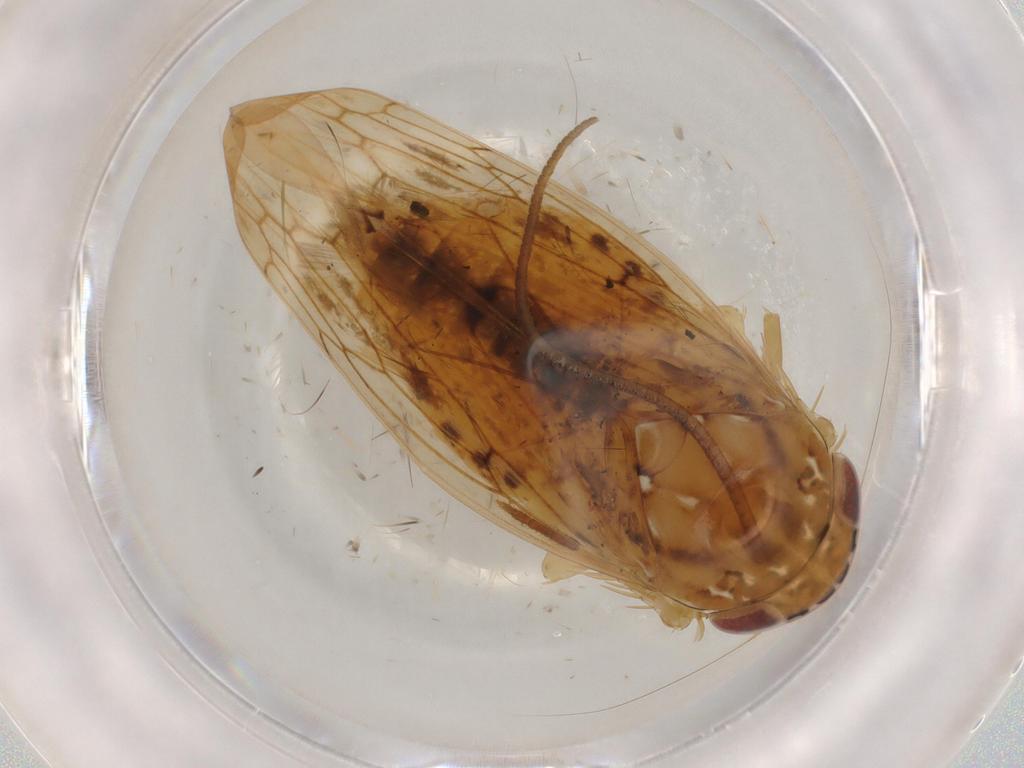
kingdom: Animalia
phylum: Arthropoda
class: Insecta
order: Hemiptera
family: Cicadellidae
